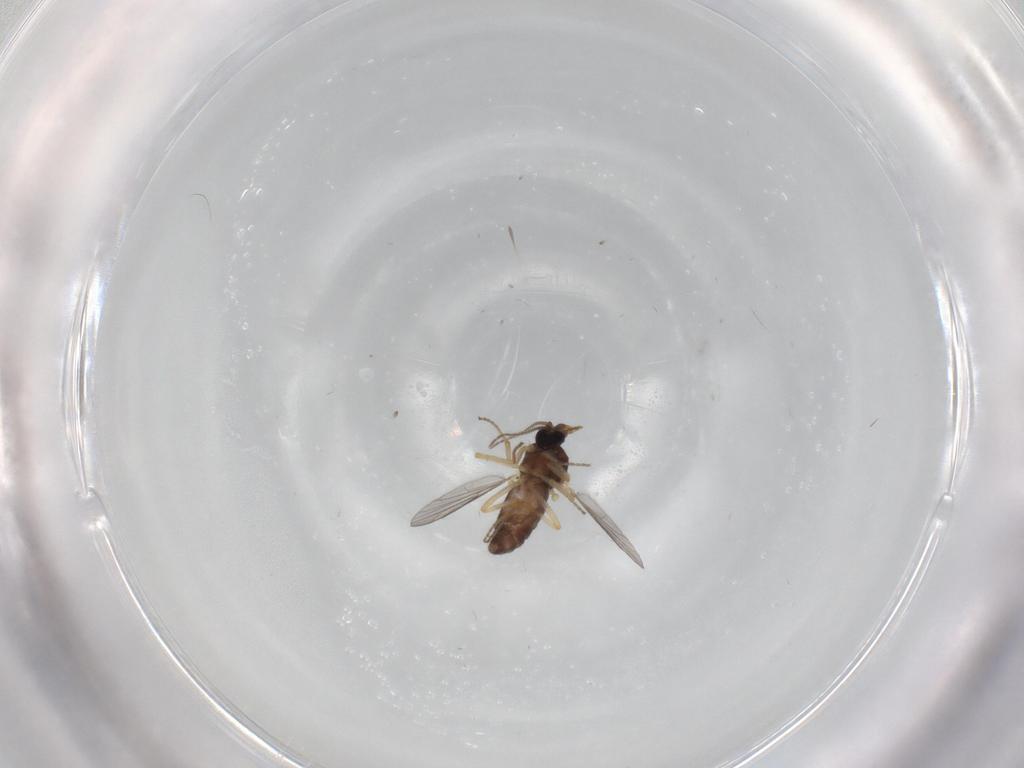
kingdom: Animalia
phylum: Arthropoda
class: Insecta
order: Diptera
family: Ceratopogonidae
